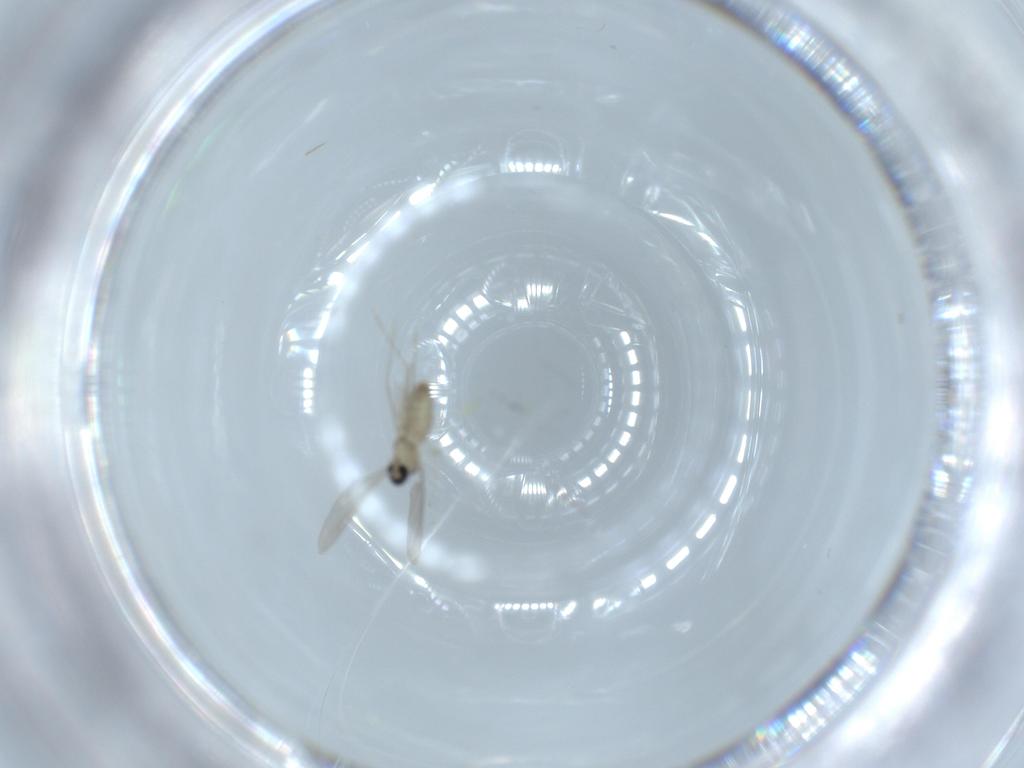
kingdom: Animalia
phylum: Arthropoda
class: Insecta
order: Diptera
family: Cecidomyiidae
